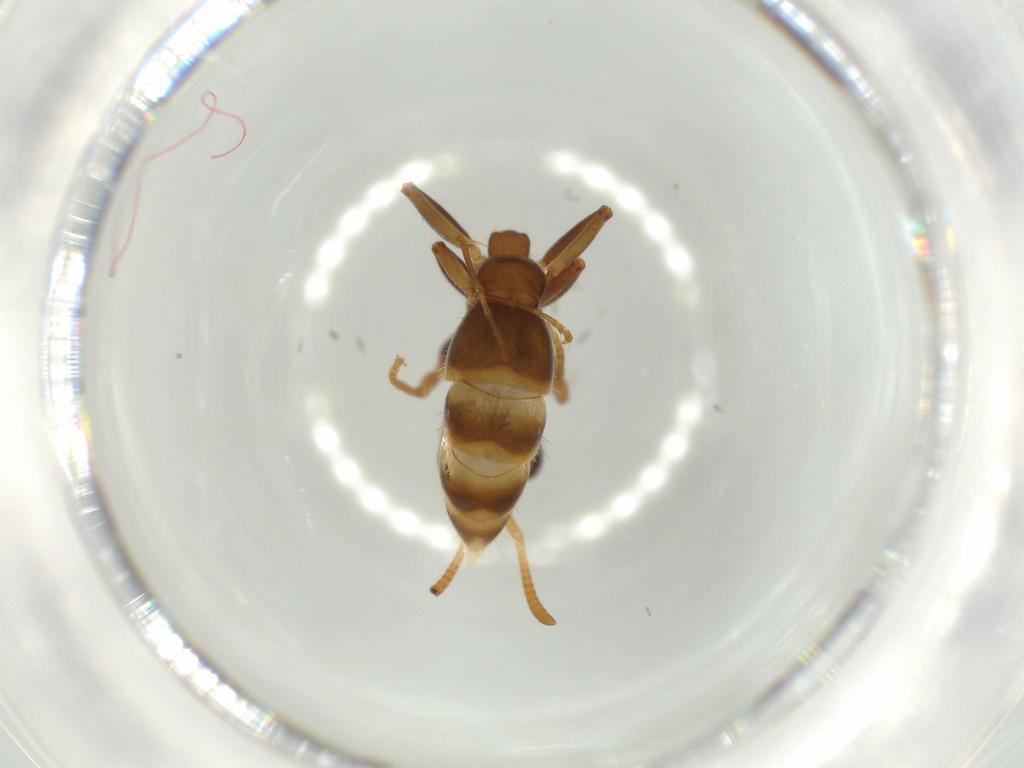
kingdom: Animalia
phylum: Arthropoda
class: Insecta
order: Hymenoptera
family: Formicidae
